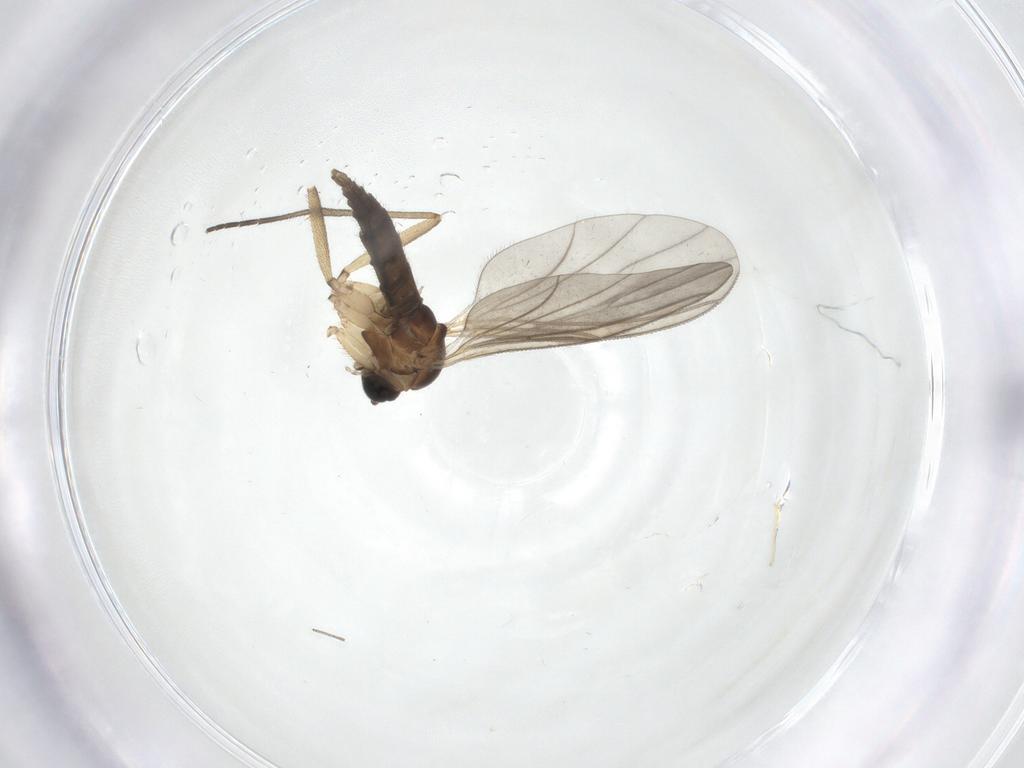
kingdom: Animalia
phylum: Arthropoda
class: Insecta
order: Diptera
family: Sciaridae
